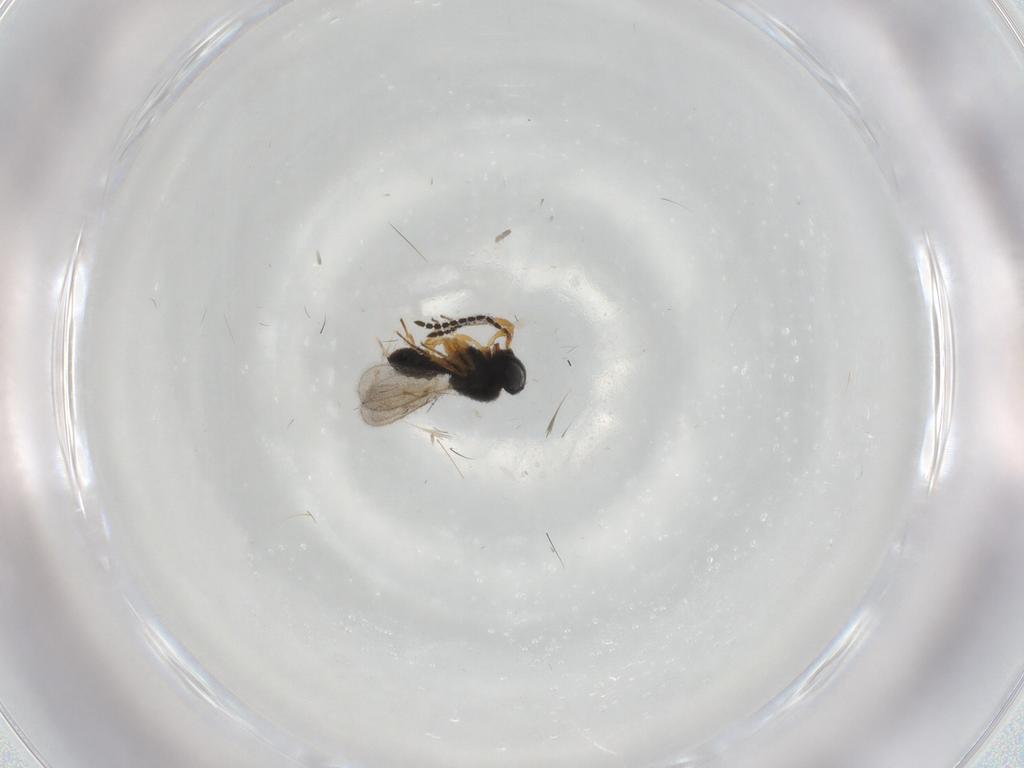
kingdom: Animalia
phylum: Arthropoda
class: Insecta
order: Hymenoptera
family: Scelionidae
